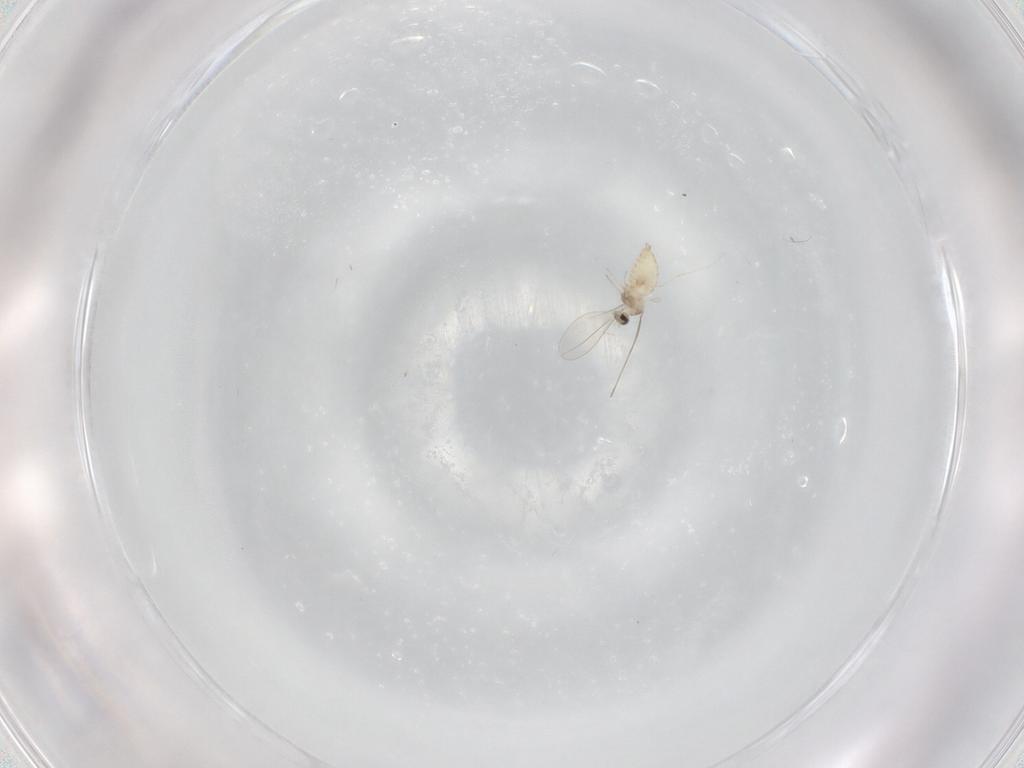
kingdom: Animalia
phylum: Arthropoda
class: Insecta
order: Diptera
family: Cecidomyiidae
